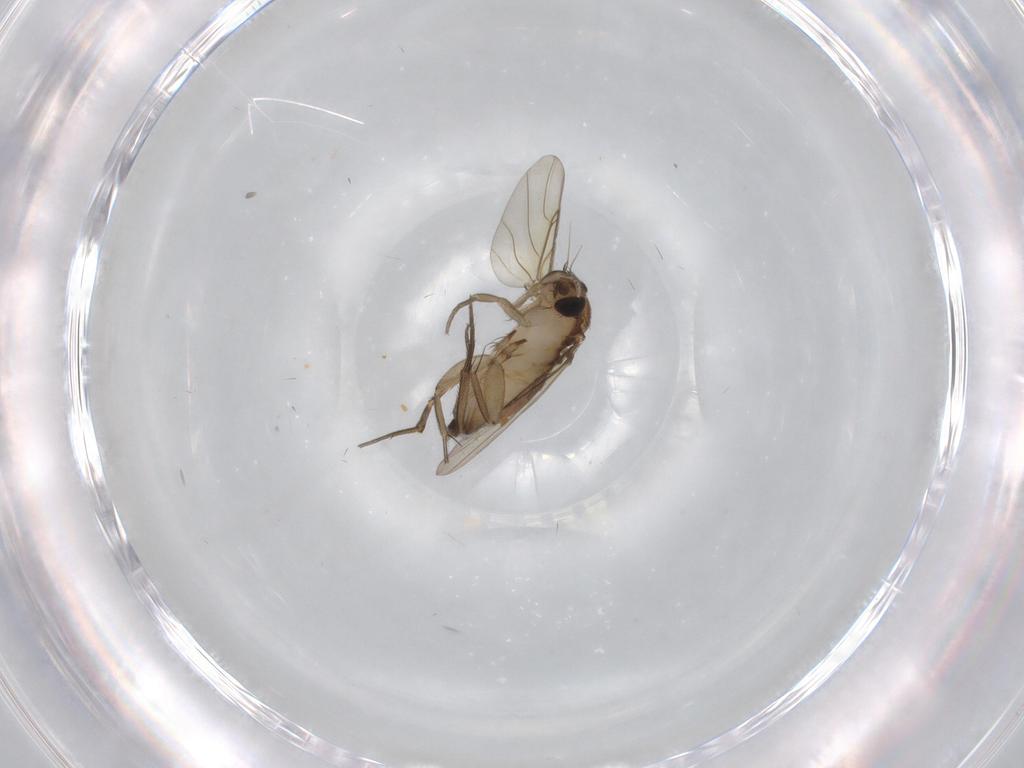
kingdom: Animalia
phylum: Arthropoda
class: Insecta
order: Diptera
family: Phoridae
